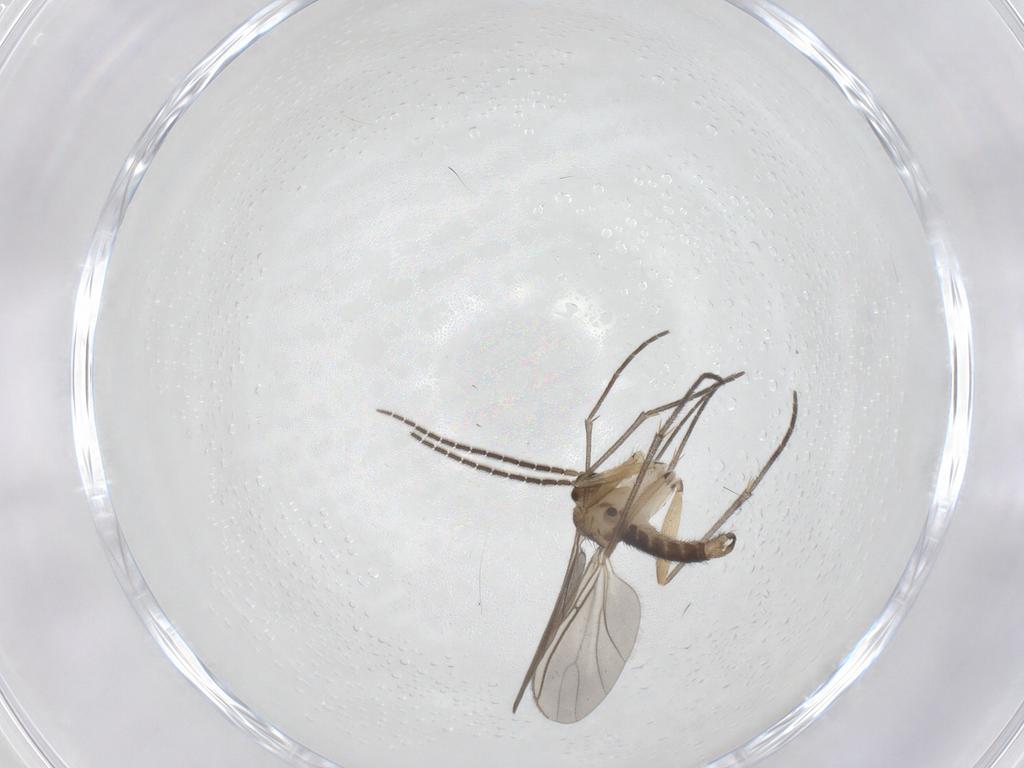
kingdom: Animalia
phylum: Arthropoda
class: Insecta
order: Diptera
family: Sciaridae
